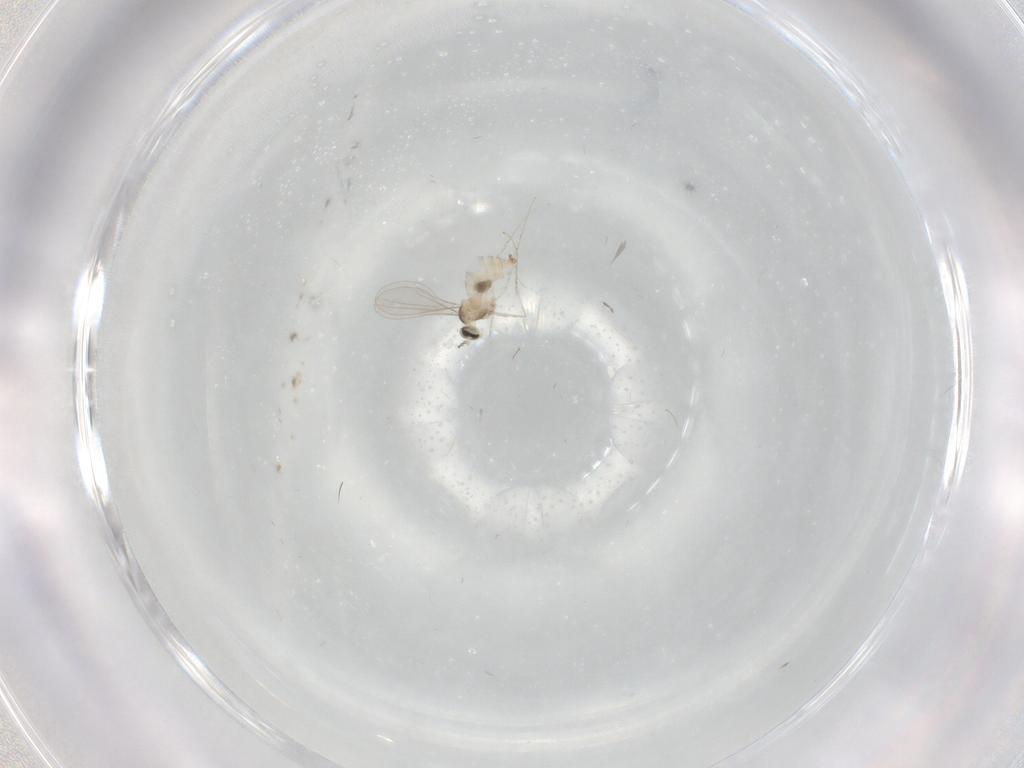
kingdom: Animalia
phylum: Arthropoda
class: Insecta
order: Diptera
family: Cecidomyiidae
